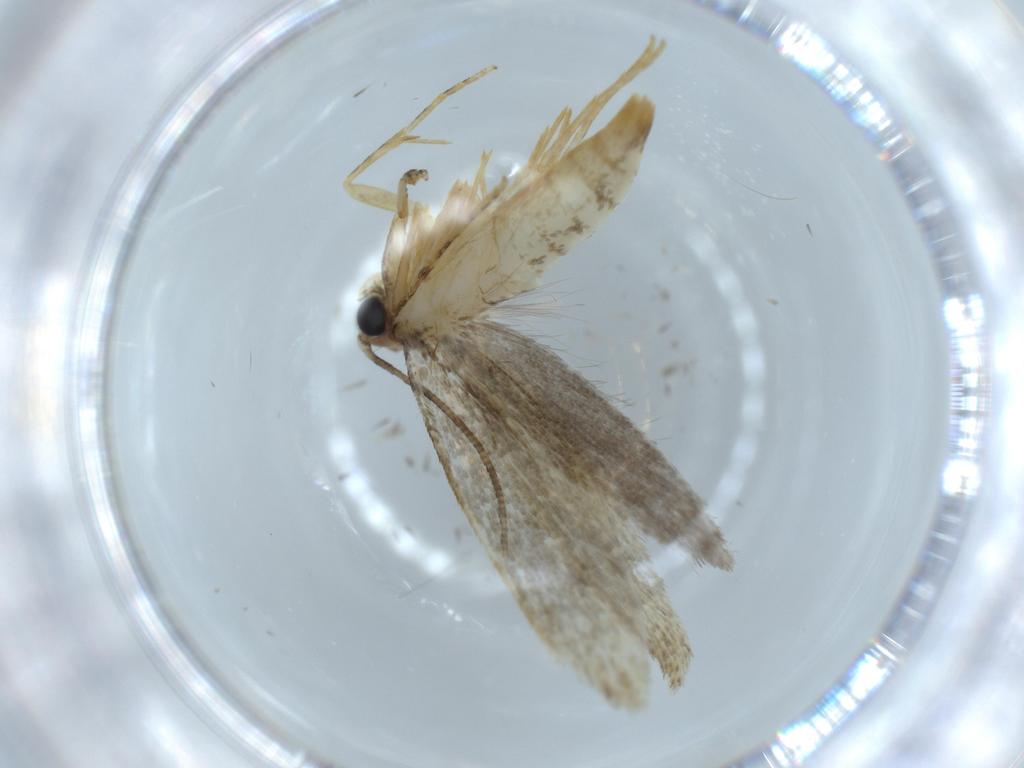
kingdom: Animalia
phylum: Arthropoda
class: Insecta
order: Lepidoptera
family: Tineidae
